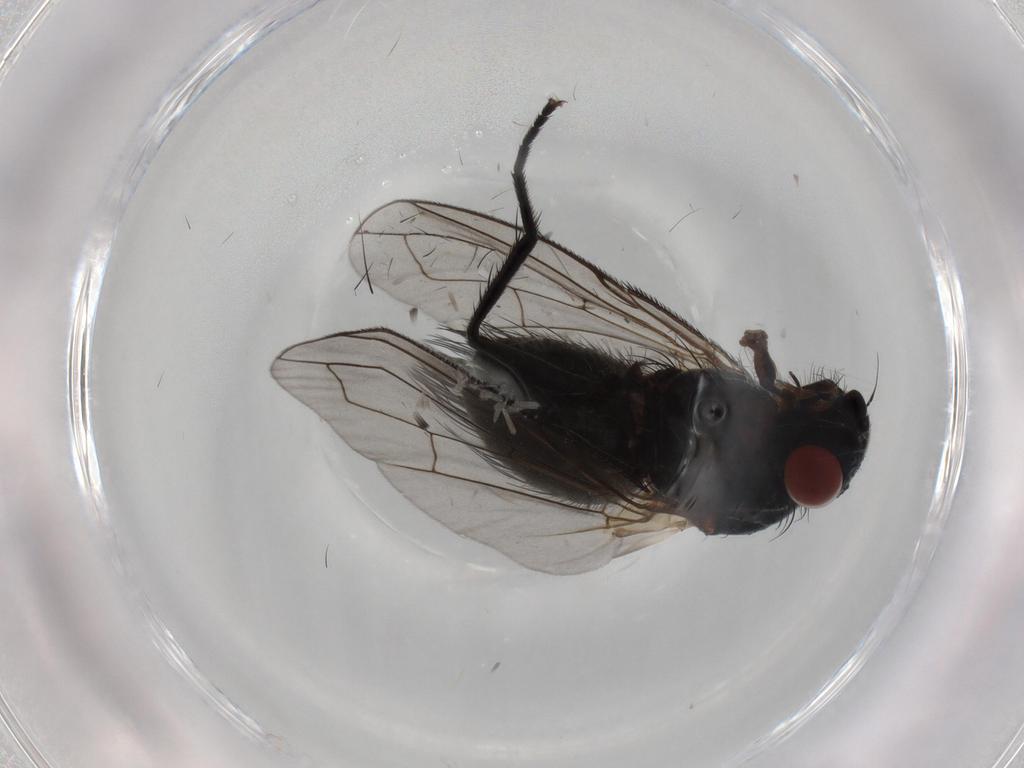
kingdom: Animalia
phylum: Arthropoda
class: Insecta
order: Diptera
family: Tachinidae
